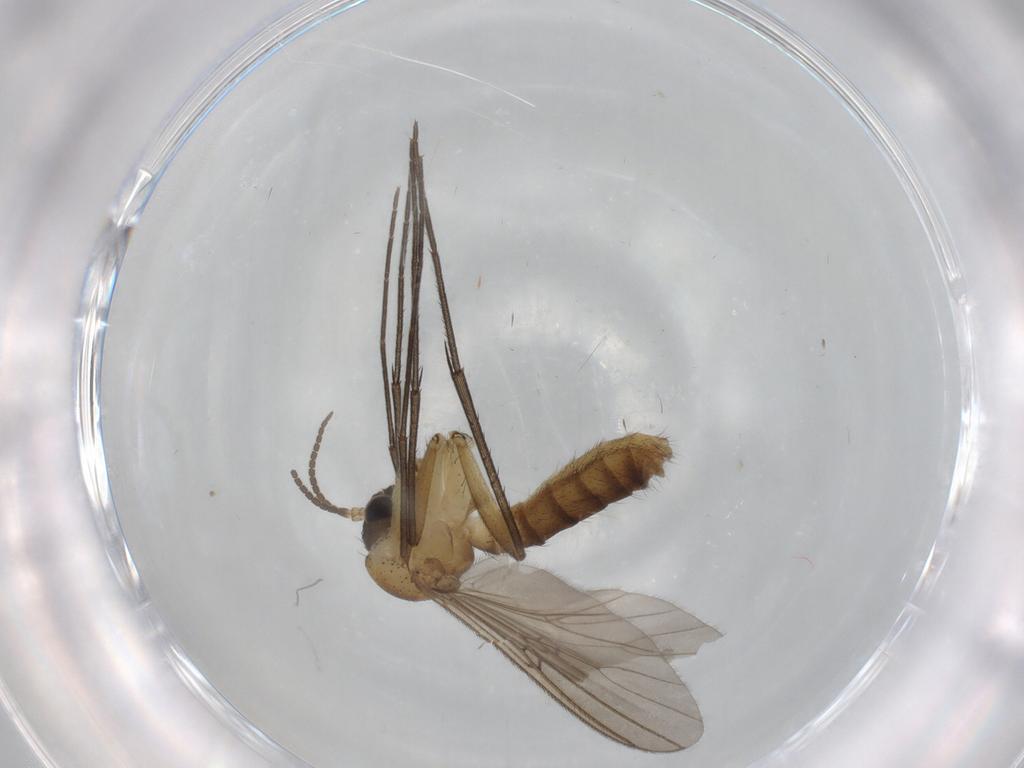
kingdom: Animalia
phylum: Arthropoda
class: Insecta
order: Diptera
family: Mycetophilidae
